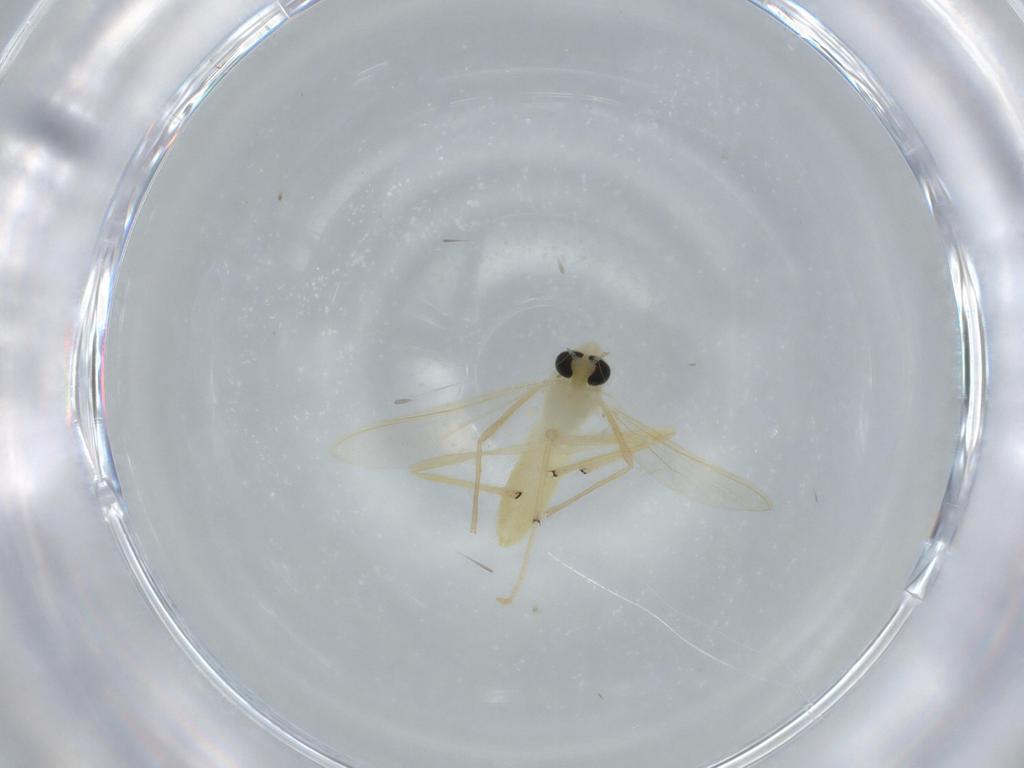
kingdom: Animalia
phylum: Arthropoda
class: Insecta
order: Diptera
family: Chironomidae
